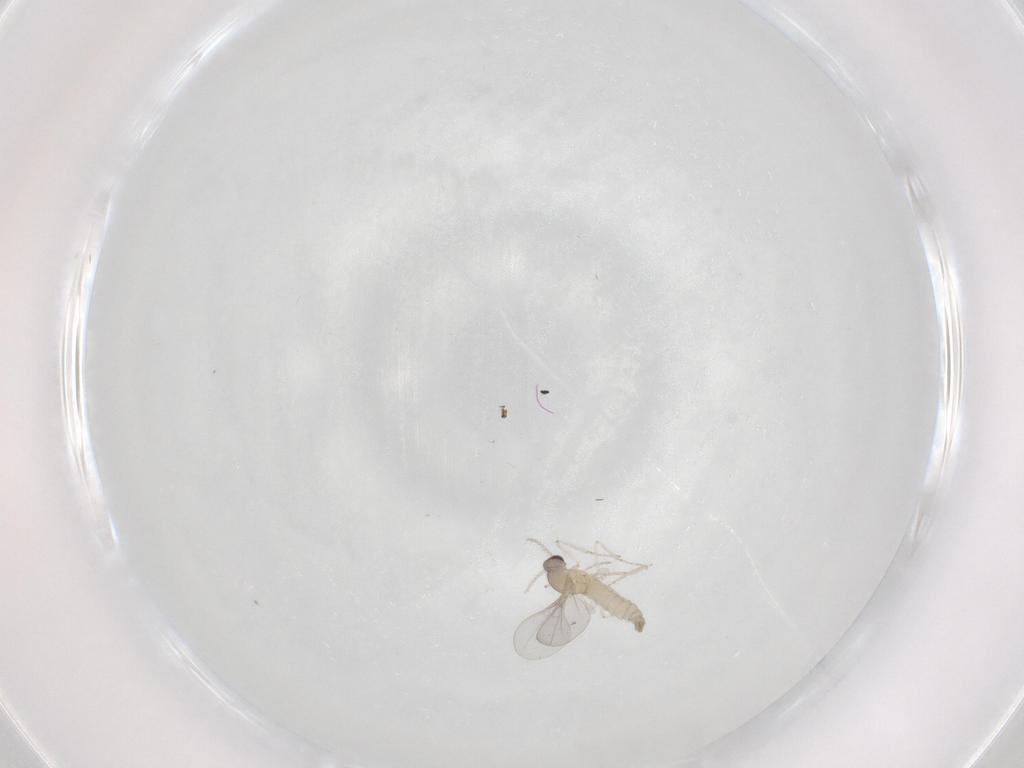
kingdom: Animalia
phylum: Arthropoda
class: Insecta
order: Diptera
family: Cecidomyiidae
